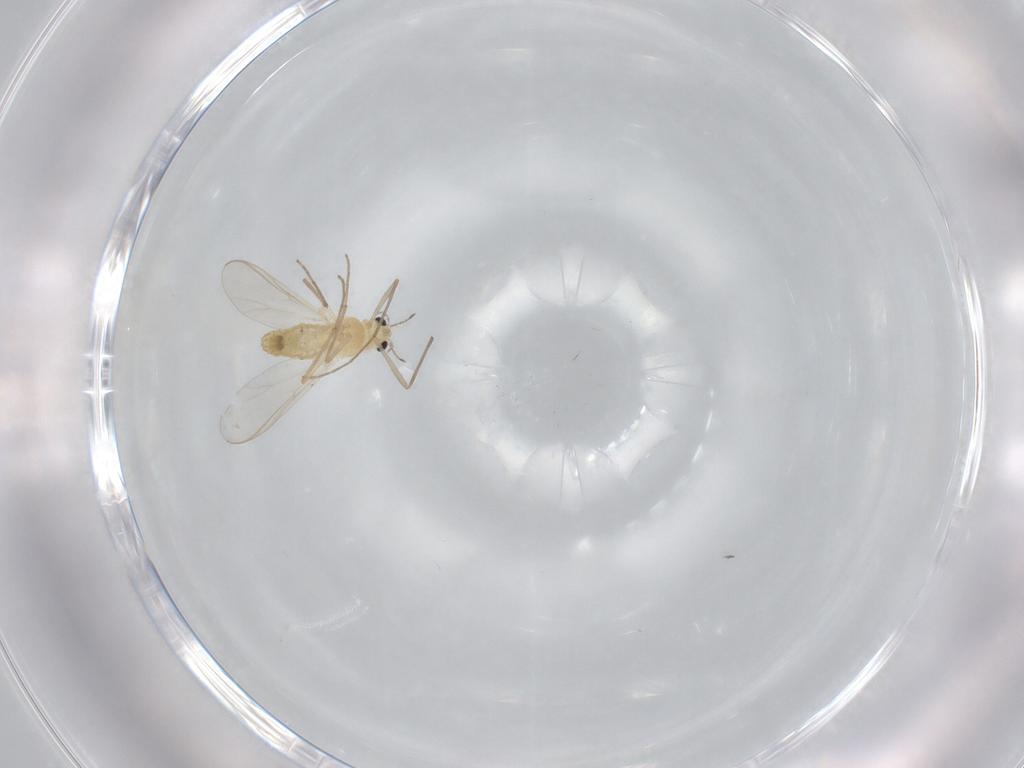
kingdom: Animalia
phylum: Arthropoda
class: Insecta
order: Diptera
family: Chironomidae
